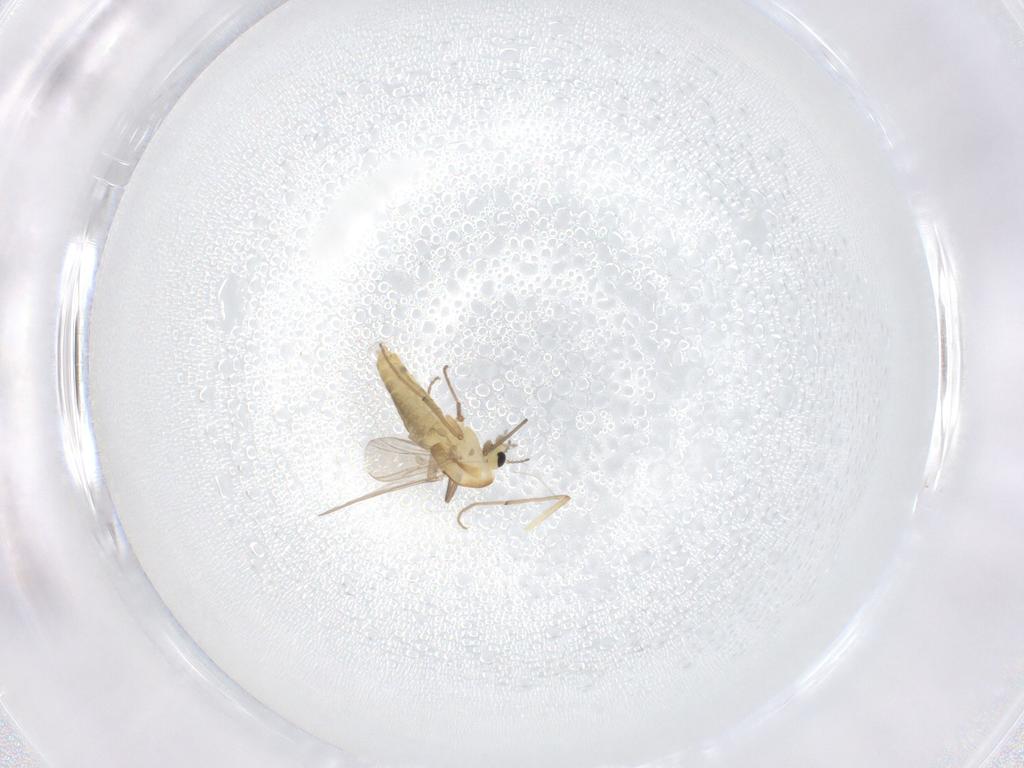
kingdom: Animalia
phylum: Arthropoda
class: Insecta
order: Diptera
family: Chironomidae
